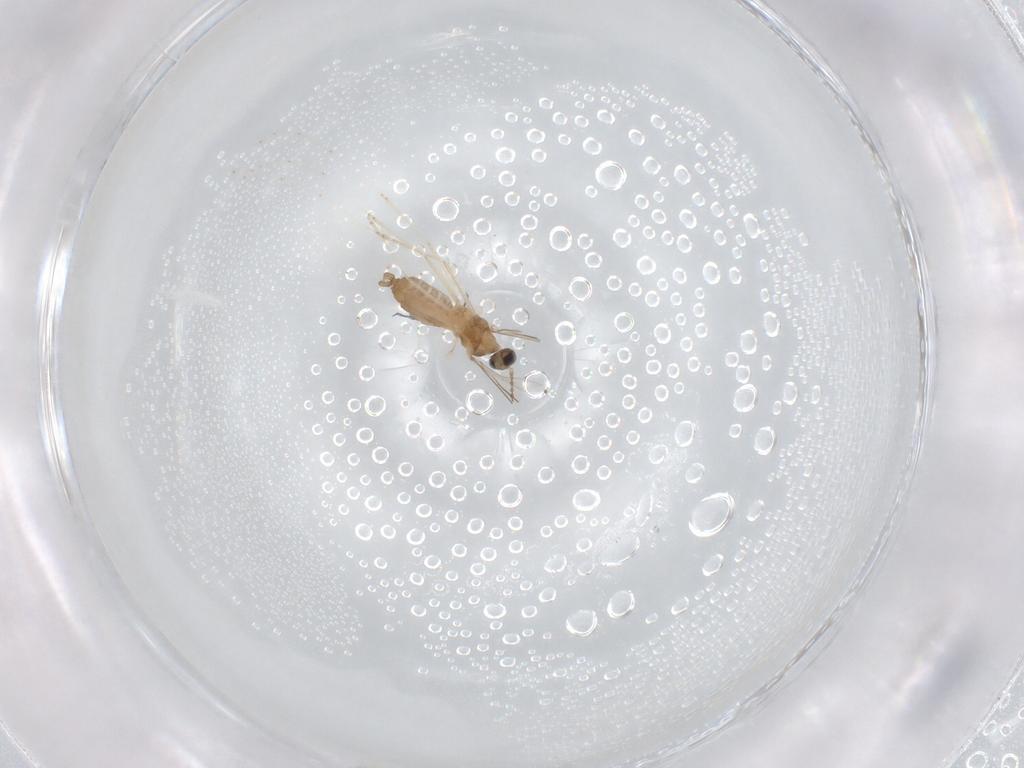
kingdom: Animalia
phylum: Arthropoda
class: Insecta
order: Diptera
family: Cecidomyiidae
